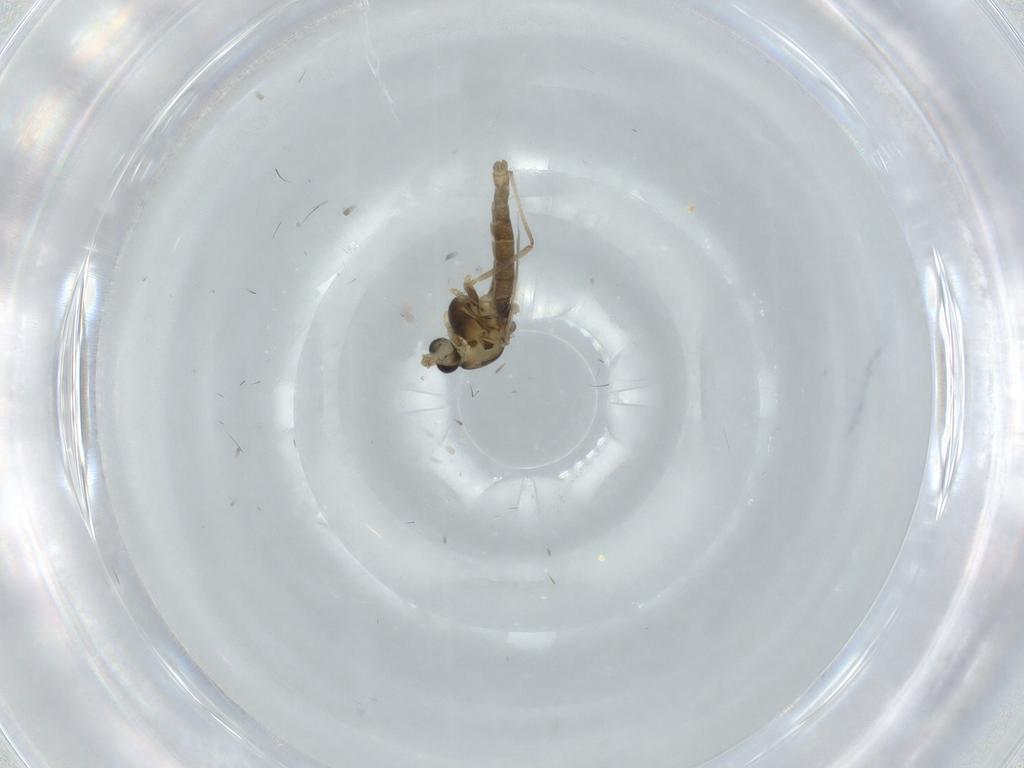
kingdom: Animalia
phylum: Arthropoda
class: Insecta
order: Diptera
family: Chironomidae
